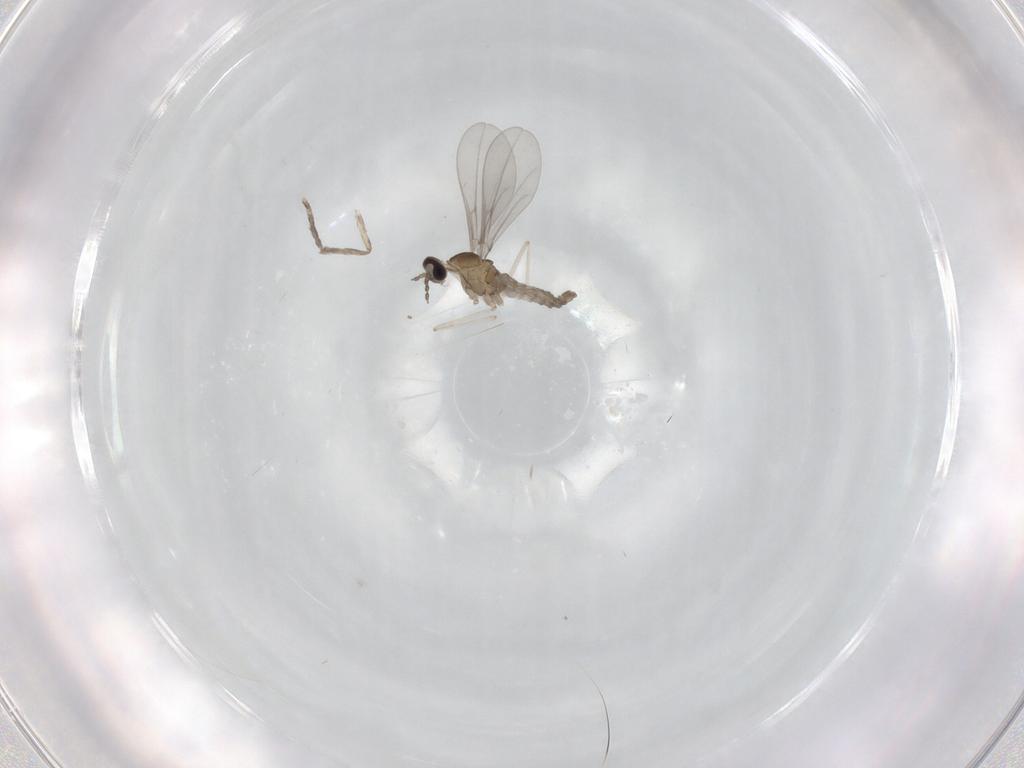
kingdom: Animalia
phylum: Arthropoda
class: Insecta
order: Diptera
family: Cecidomyiidae
